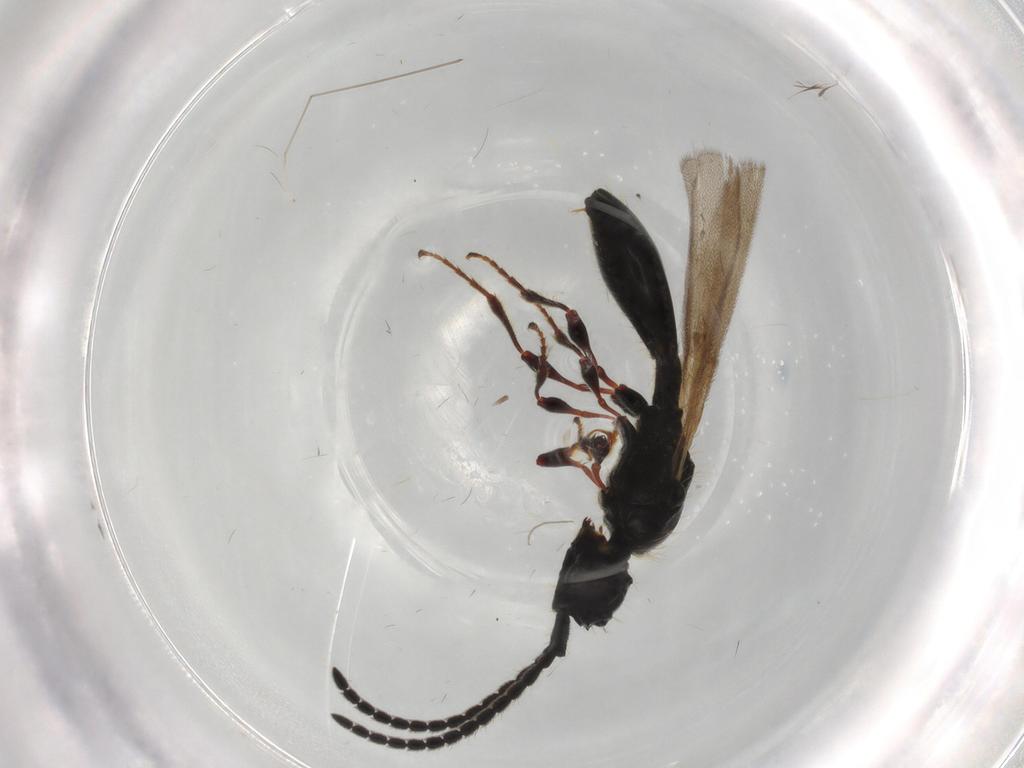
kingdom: Animalia
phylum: Arthropoda
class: Insecta
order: Hymenoptera
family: Diapriidae
